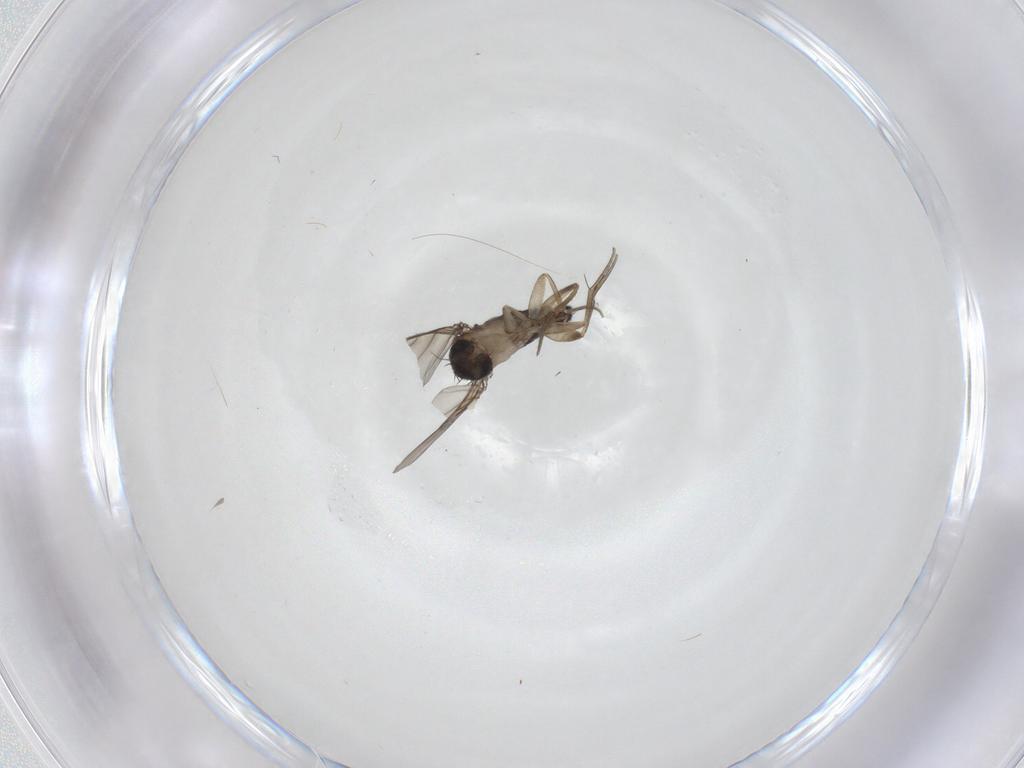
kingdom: Animalia
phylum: Arthropoda
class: Insecta
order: Diptera
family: Phoridae
